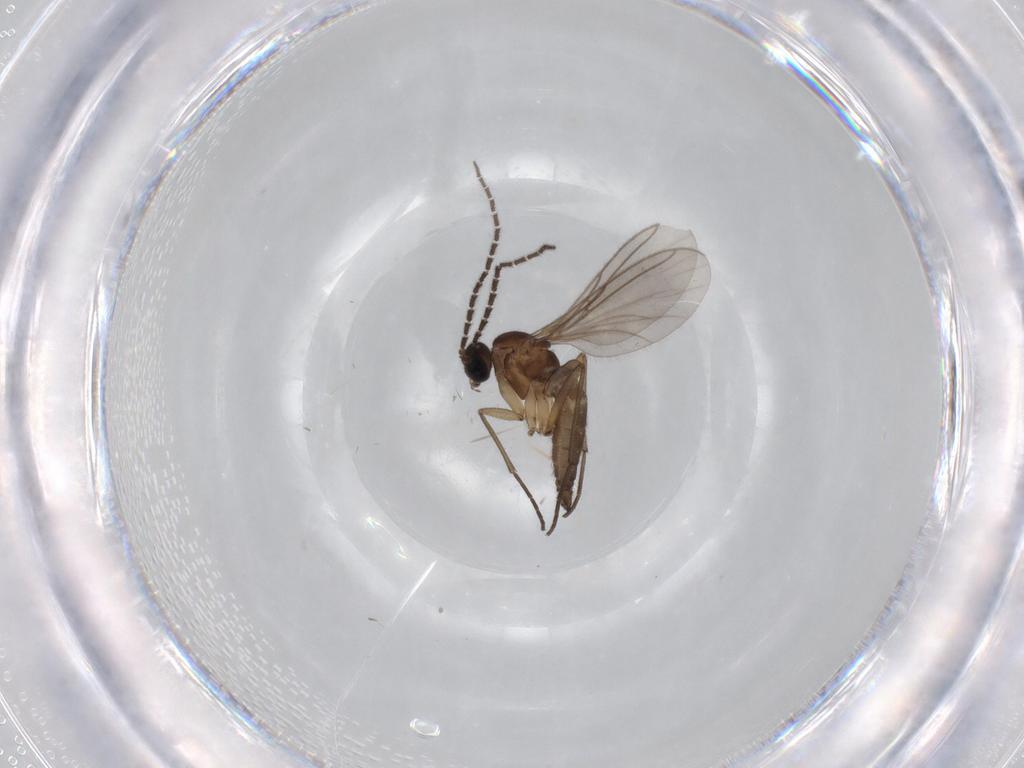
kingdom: Animalia
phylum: Arthropoda
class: Insecta
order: Diptera
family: Sciaridae
